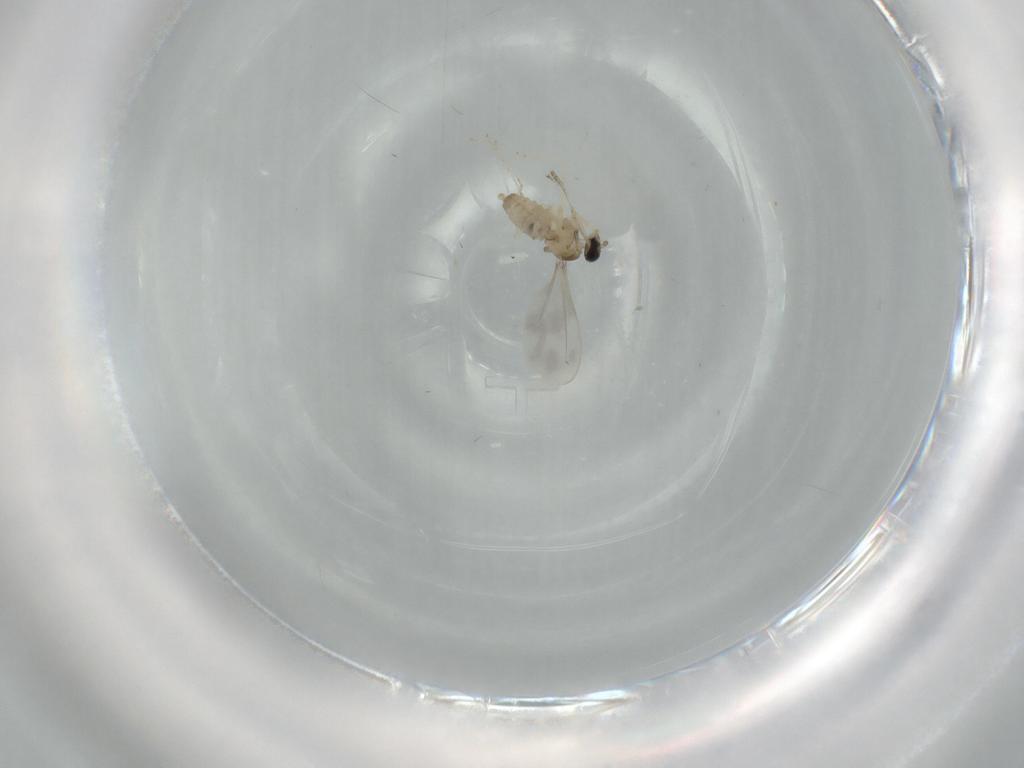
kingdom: Animalia
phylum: Arthropoda
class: Insecta
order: Diptera
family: Cecidomyiidae
